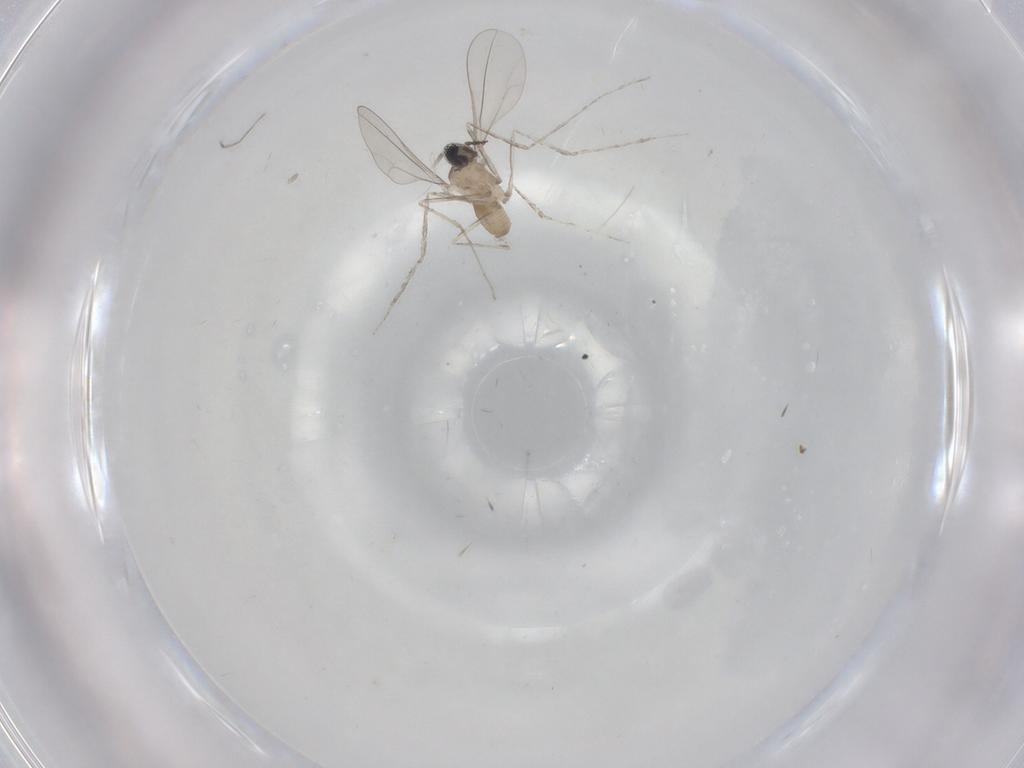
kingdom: Animalia
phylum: Arthropoda
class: Insecta
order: Diptera
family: Cecidomyiidae
